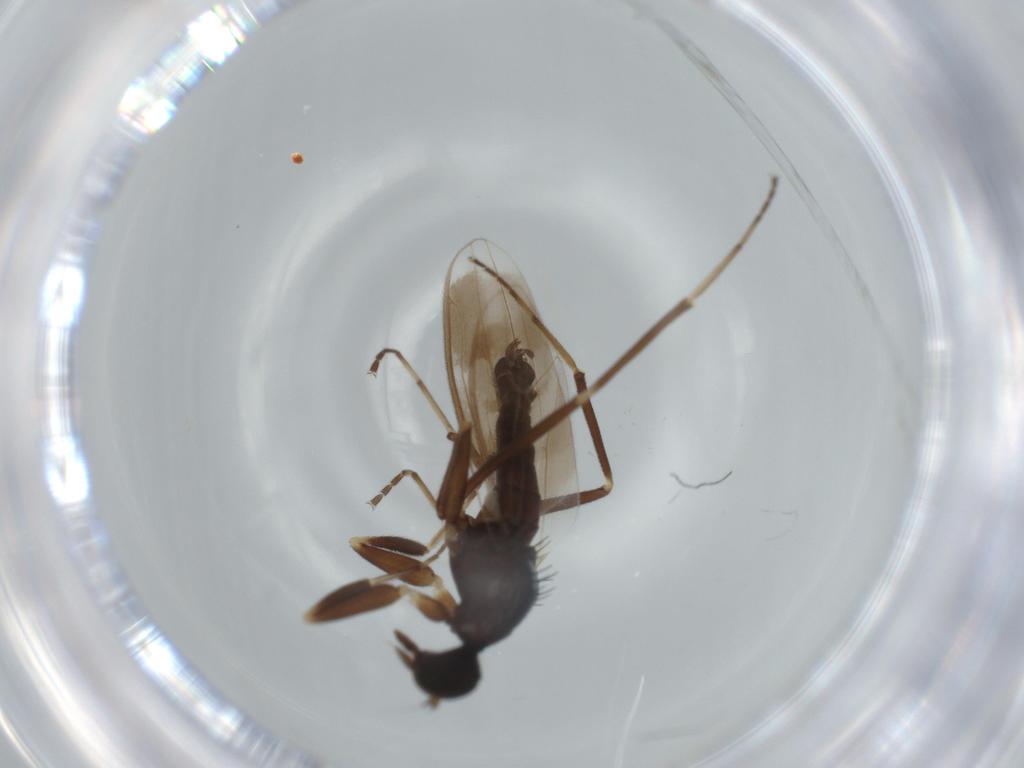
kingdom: Animalia
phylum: Arthropoda
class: Insecta
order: Diptera
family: Hybotidae
